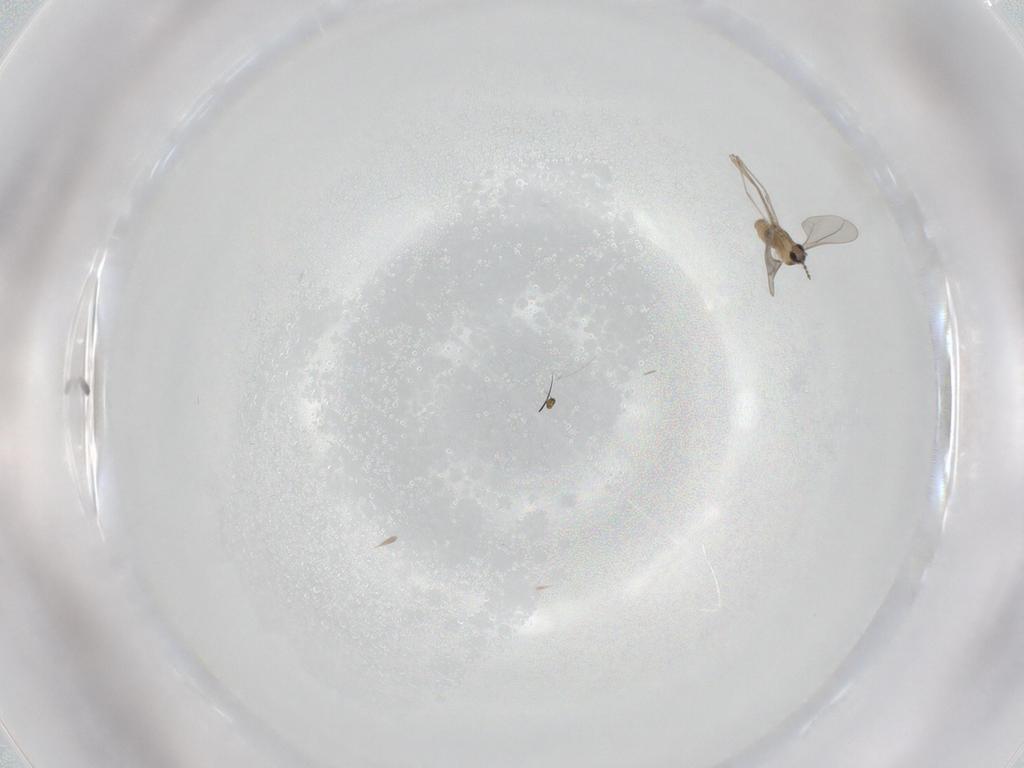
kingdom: Animalia
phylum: Arthropoda
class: Insecta
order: Diptera
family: Cecidomyiidae
